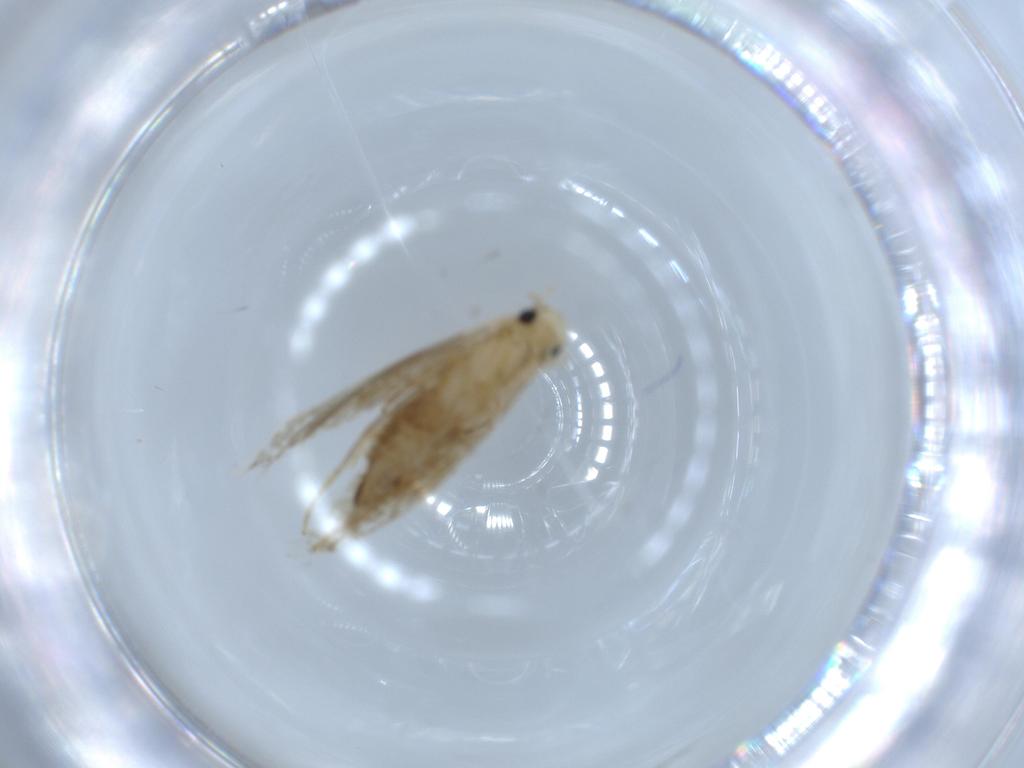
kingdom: Animalia
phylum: Arthropoda
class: Insecta
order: Lepidoptera
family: Tineidae
